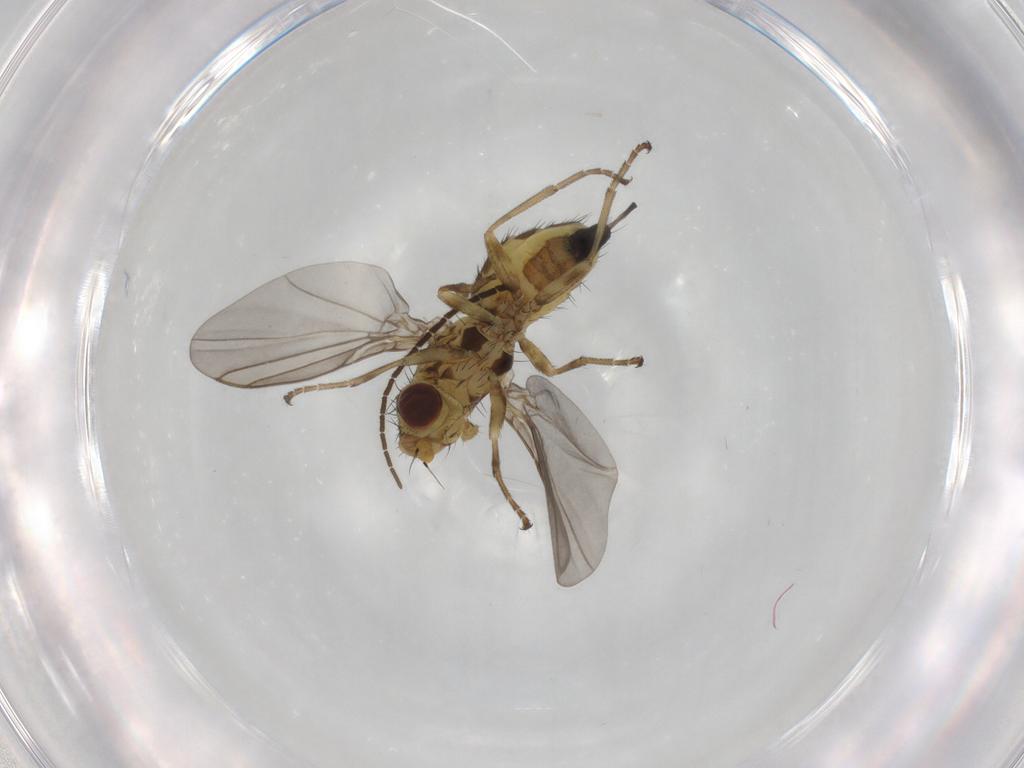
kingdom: Animalia
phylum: Arthropoda
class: Insecta
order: Diptera
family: Agromyzidae
